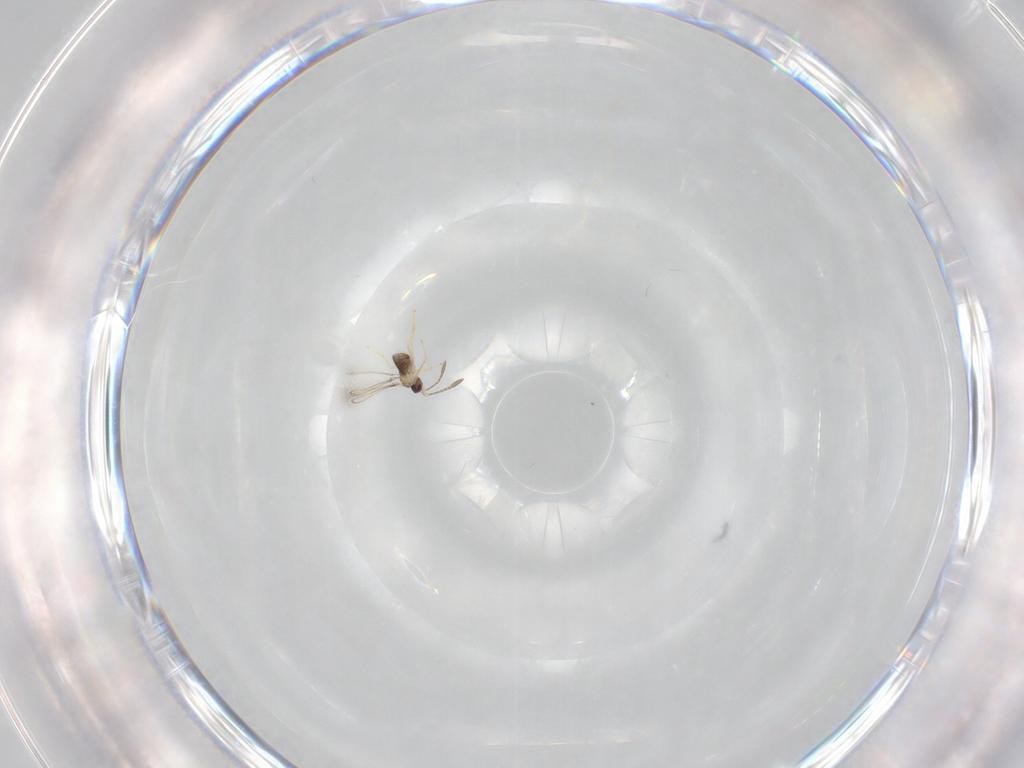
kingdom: Animalia
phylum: Arthropoda
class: Insecta
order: Hymenoptera
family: Mymaridae
